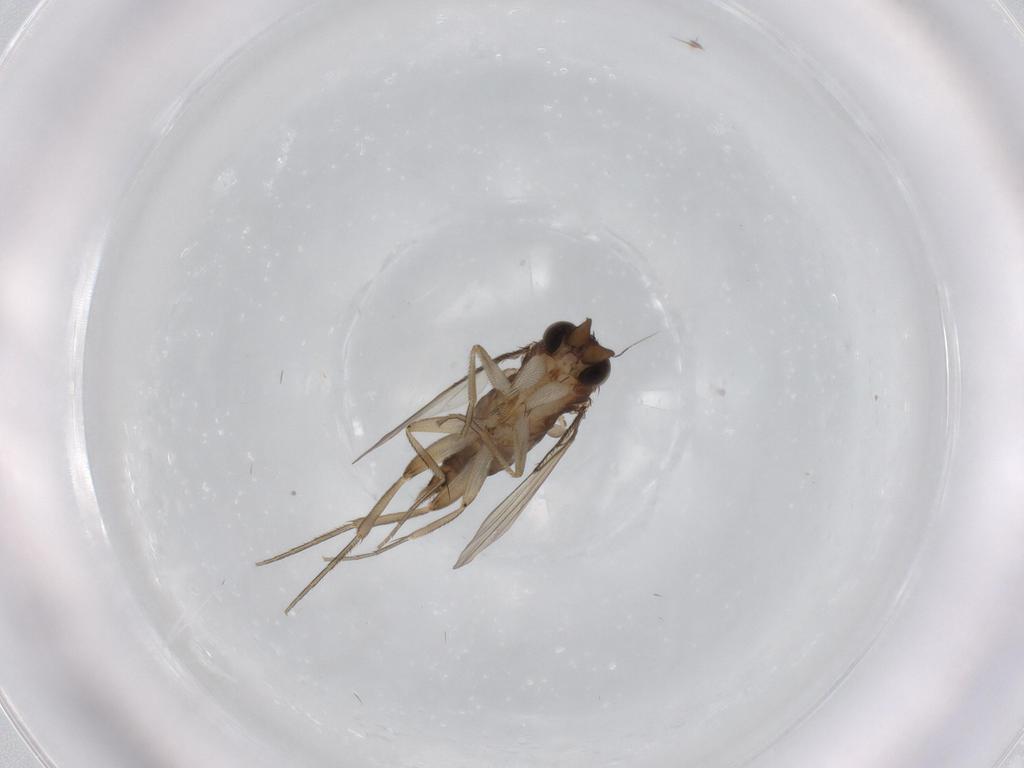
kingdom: Animalia
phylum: Arthropoda
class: Insecta
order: Diptera
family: Phoridae
